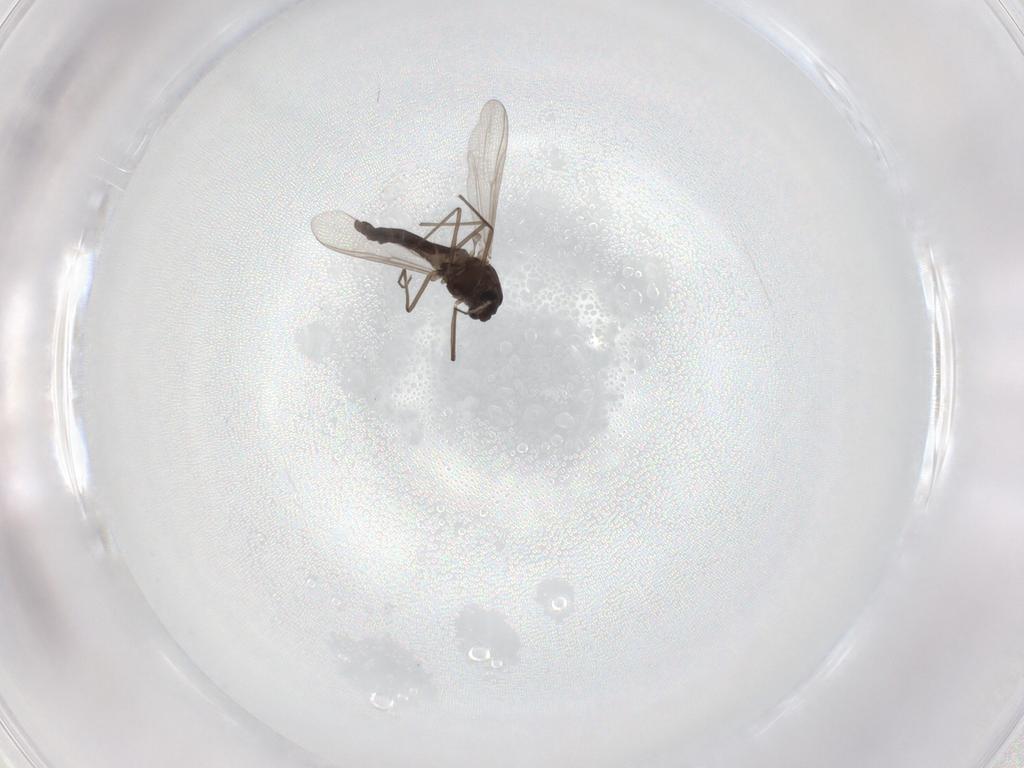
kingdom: Animalia
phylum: Arthropoda
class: Insecta
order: Diptera
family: Chironomidae
